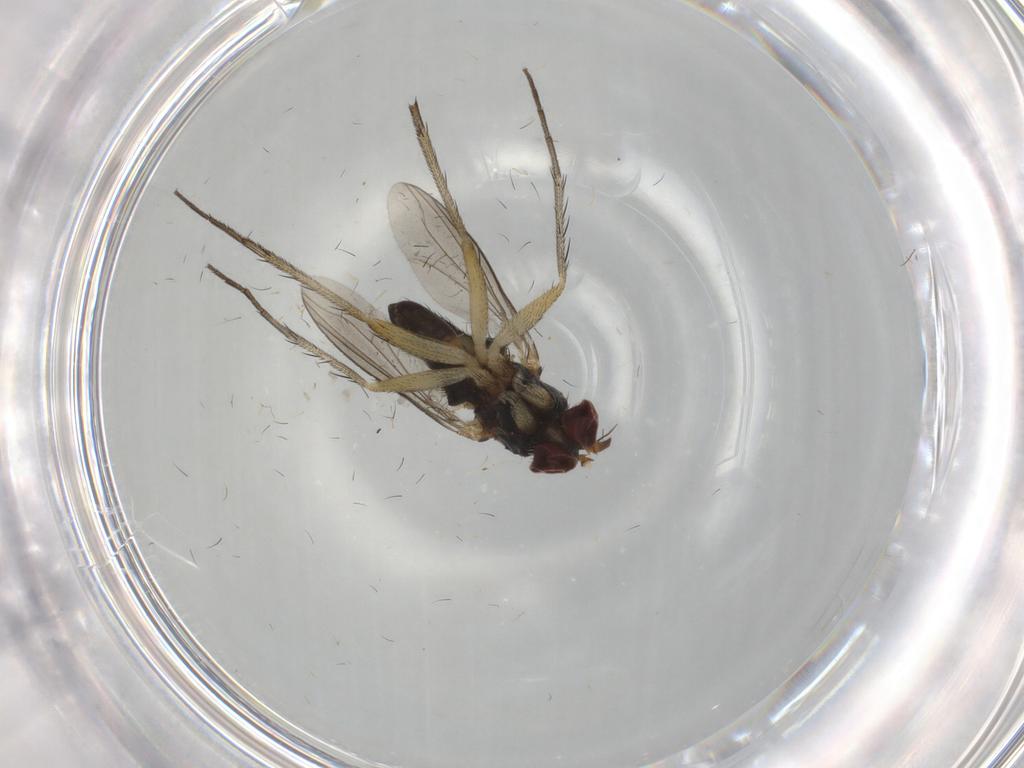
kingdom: Animalia
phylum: Arthropoda
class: Insecta
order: Diptera
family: Dolichopodidae
